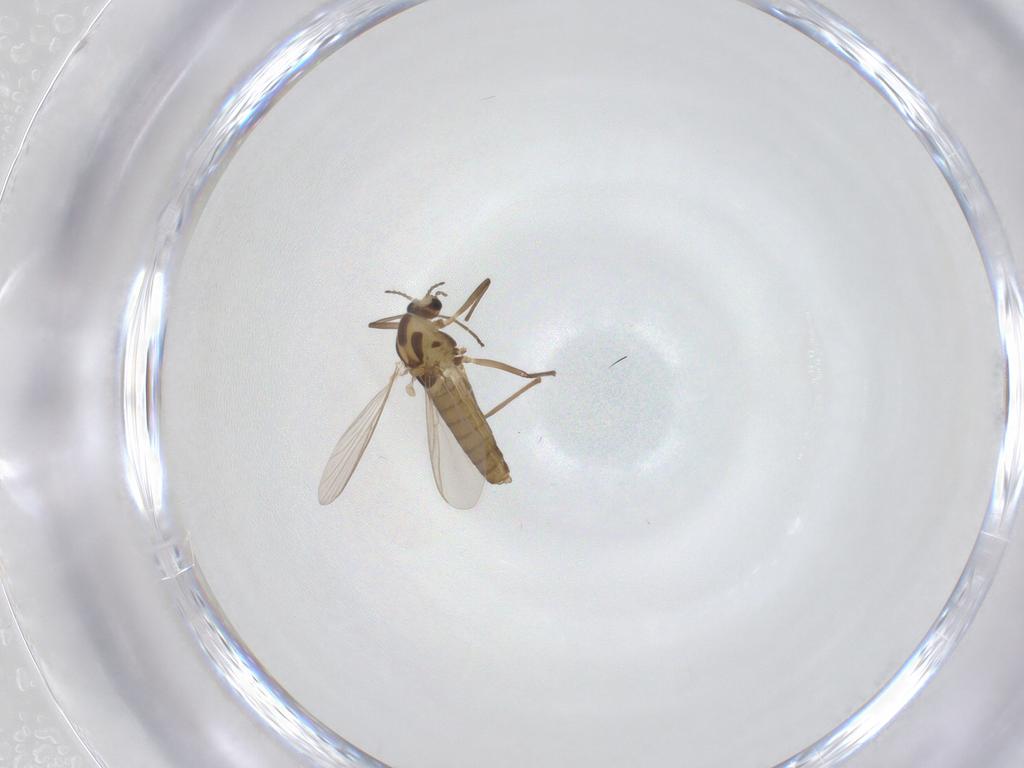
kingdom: Animalia
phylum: Arthropoda
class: Insecta
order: Diptera
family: Chironomidae
